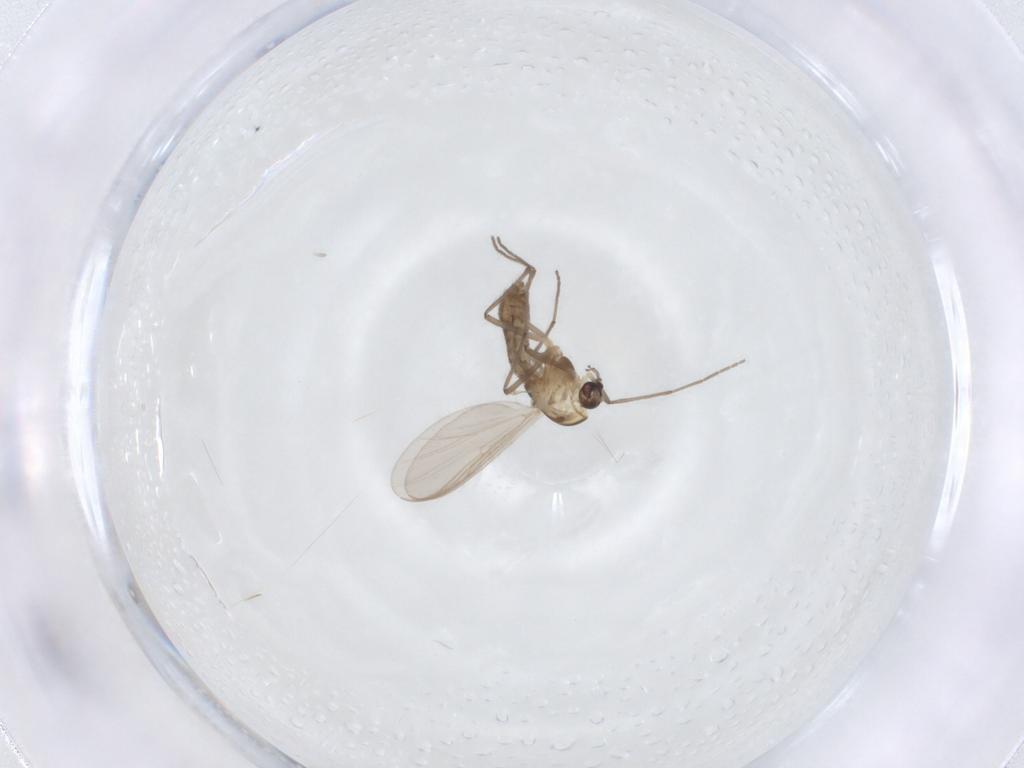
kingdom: Animalia
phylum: Arthropoda
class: Insecta
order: Diptera
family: Chironomidae
